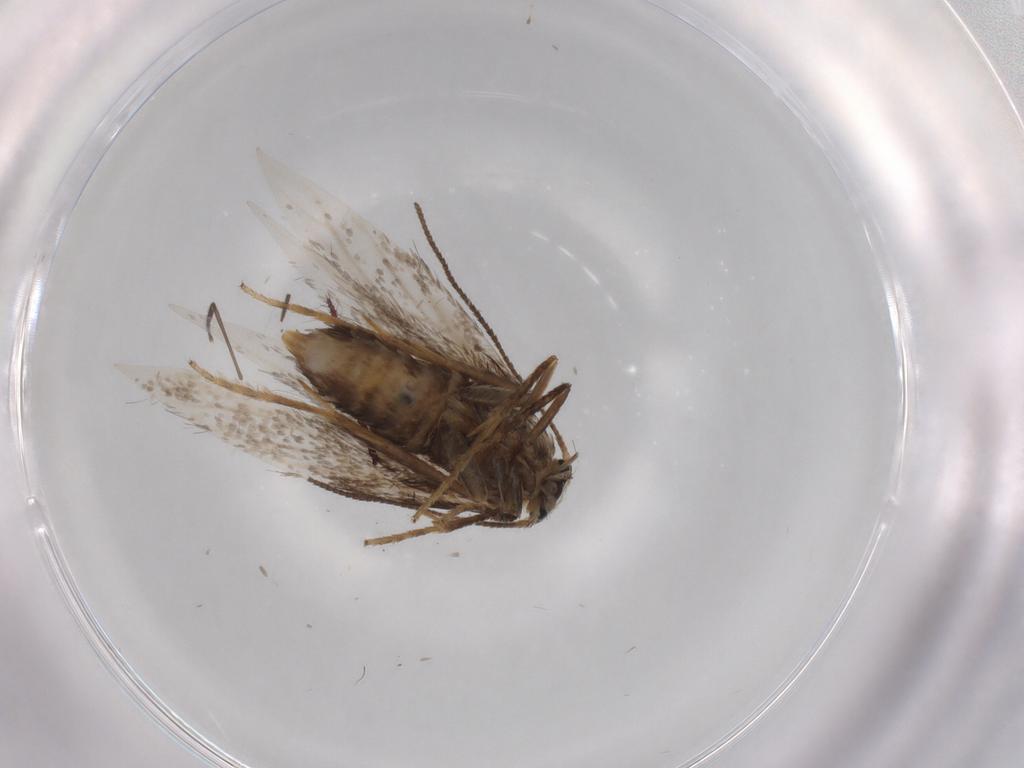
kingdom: Animalia
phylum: Arthropoda
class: Insecta
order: Lepidoptera
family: Nepticulidae
